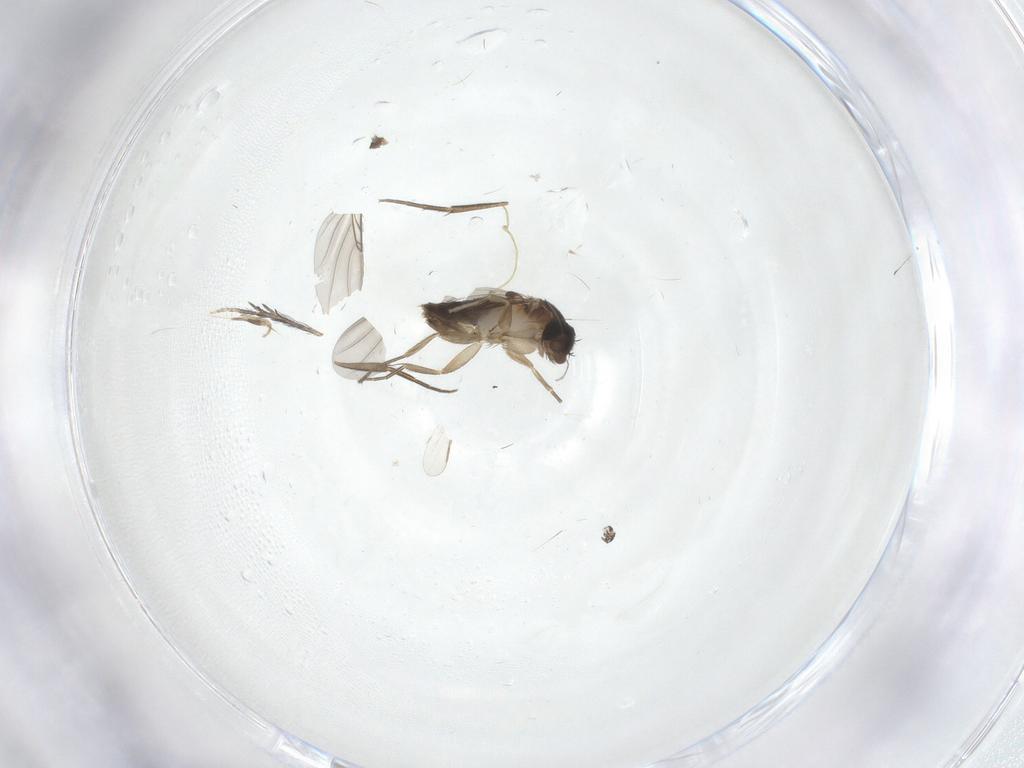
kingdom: Animalia
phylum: Arthropoda
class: Insecta
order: Diptera
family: Phoridae
